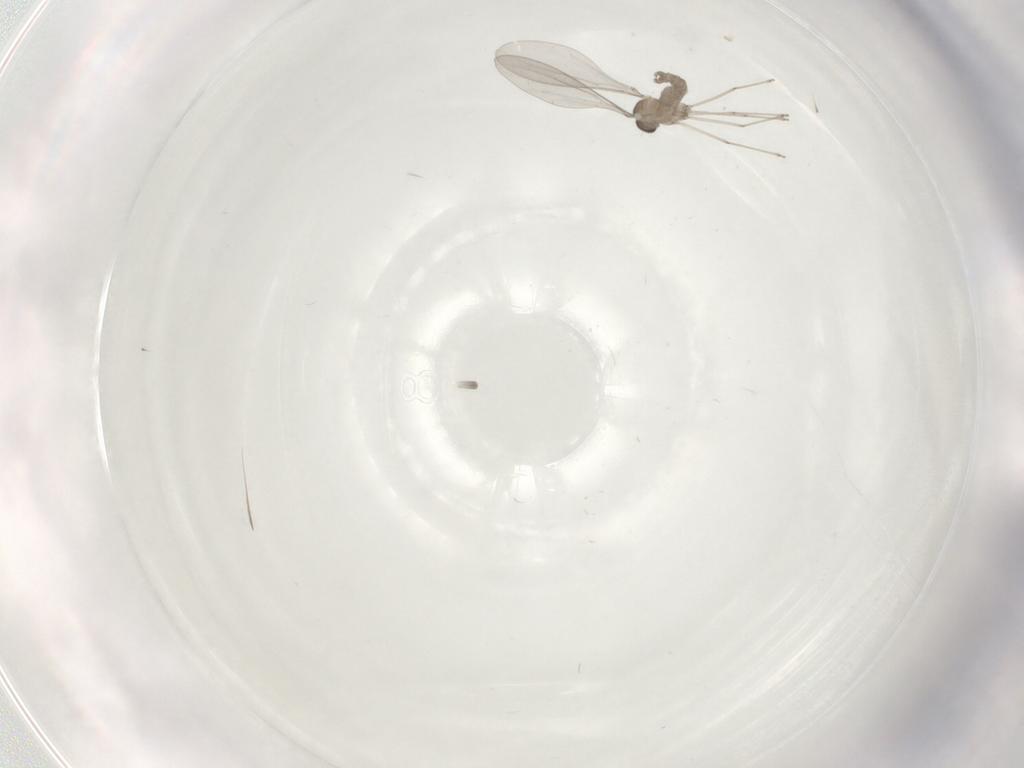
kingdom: Animalia
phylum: Arthropoda
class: Insecta
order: Diptera
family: Cecidomyiidae
